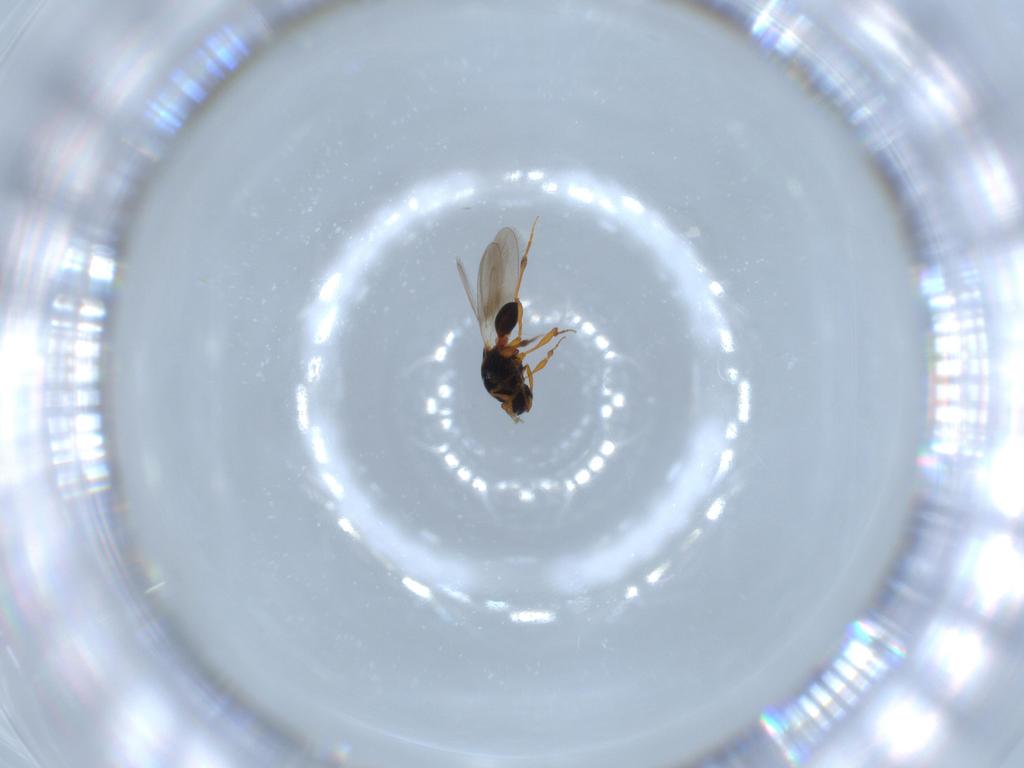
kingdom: Animalia
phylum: Arthropoda
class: Insecta
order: Hymenoptera
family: Platygastridae
